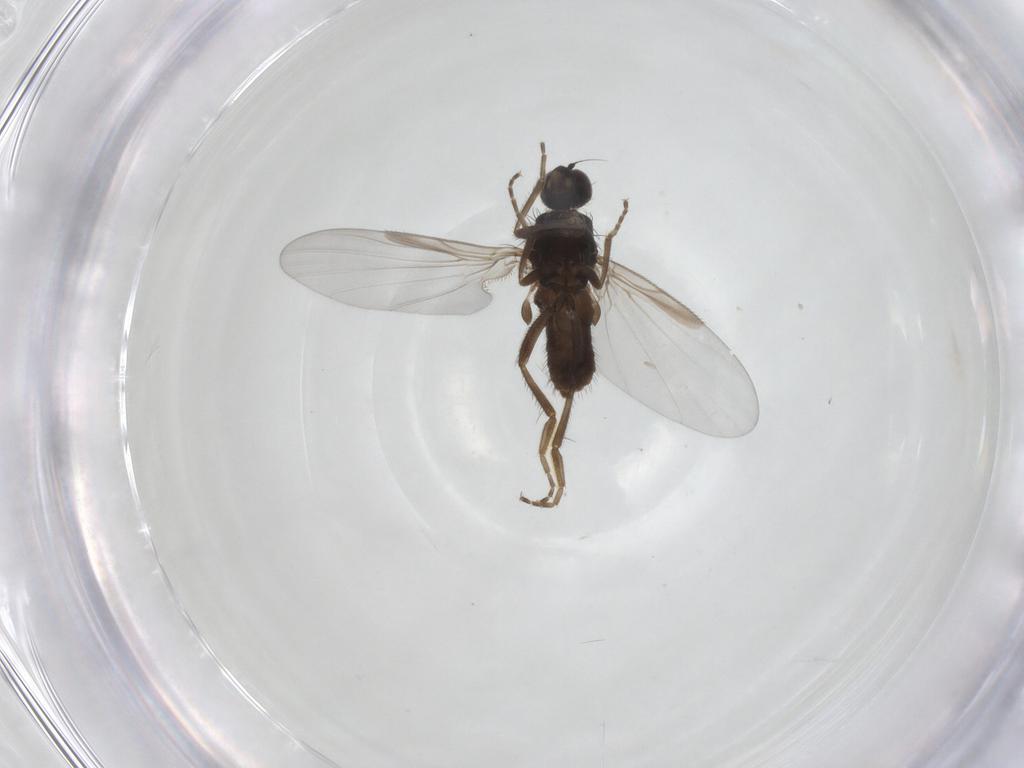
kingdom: Animalia
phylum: Arthropoda
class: Insecta
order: Diptera
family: Platypezidae
